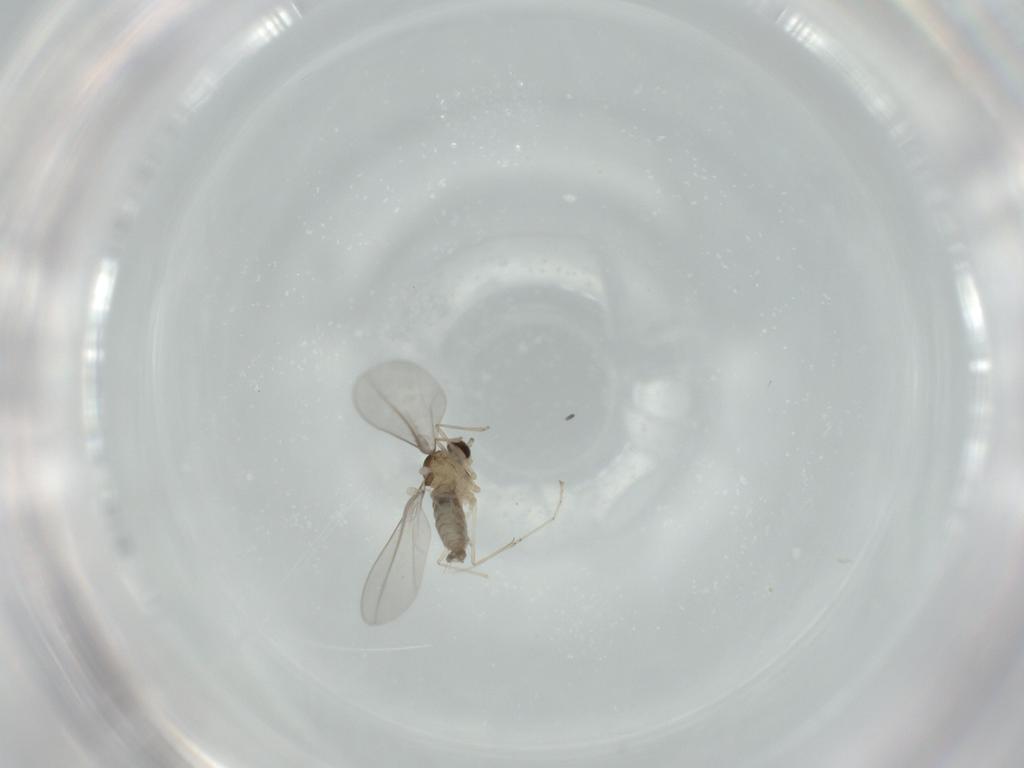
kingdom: Animalia
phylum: Arthropoda
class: Insecta
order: Diptera
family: Cecidomyiidae
